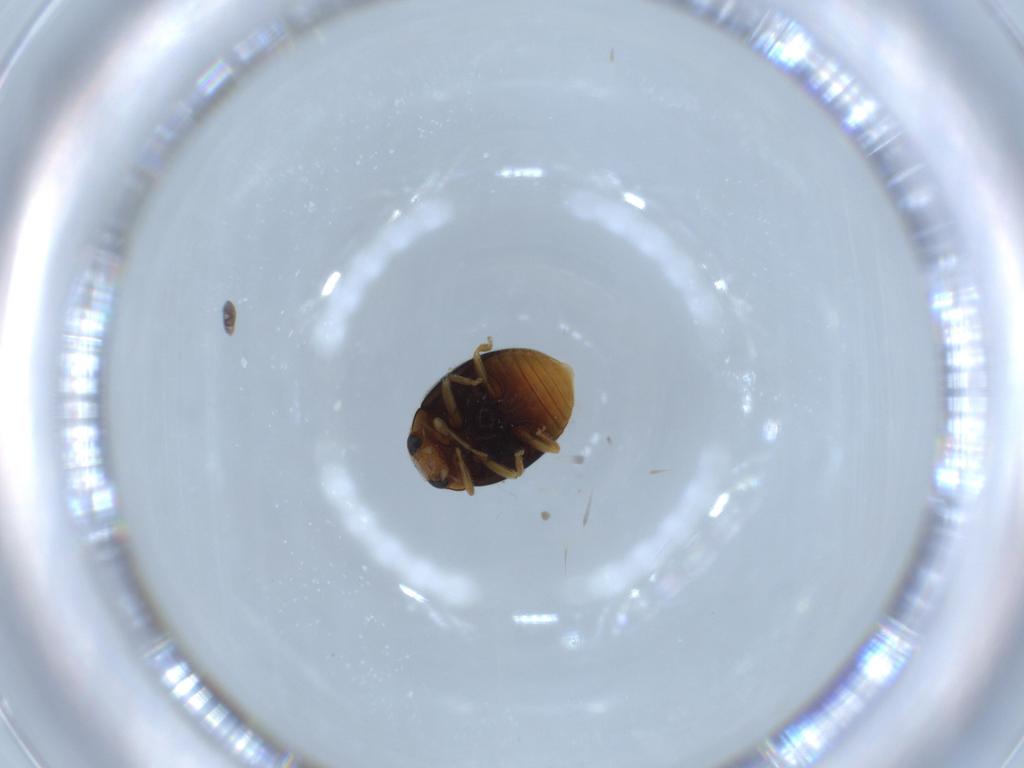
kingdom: Animalia
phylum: Arthropoda
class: Insecta
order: Coleoptera
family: Coccinellidae
